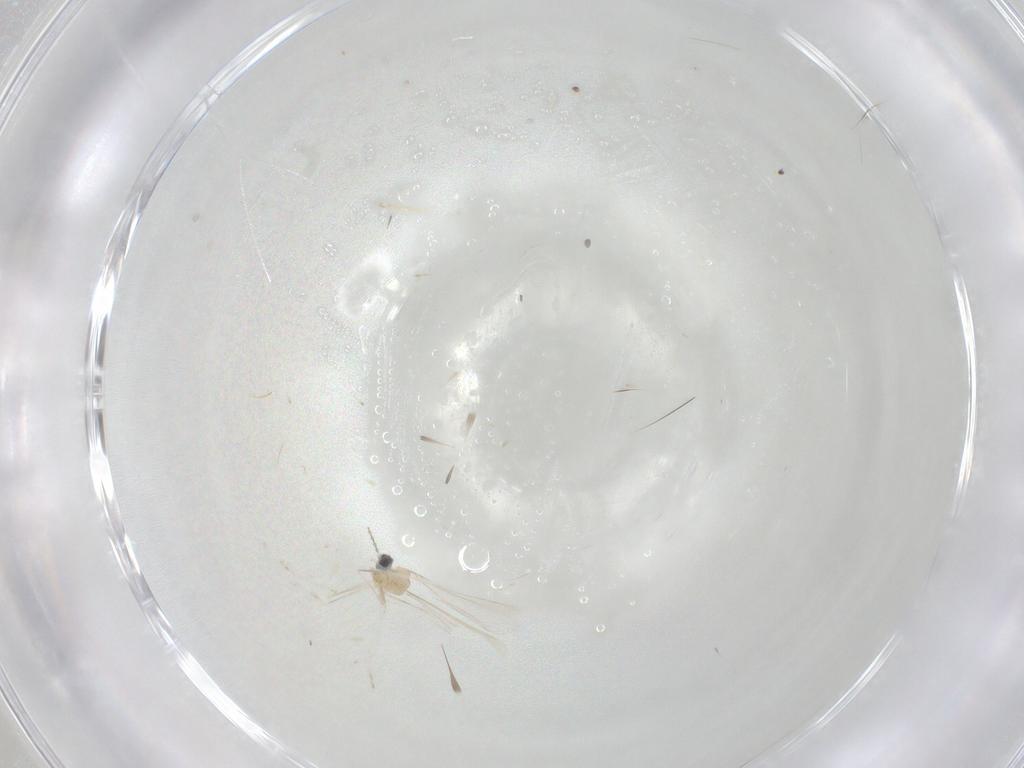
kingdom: Animalia
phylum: Arthropoda
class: Insecta
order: Diptera
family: Cecidomyiidae
